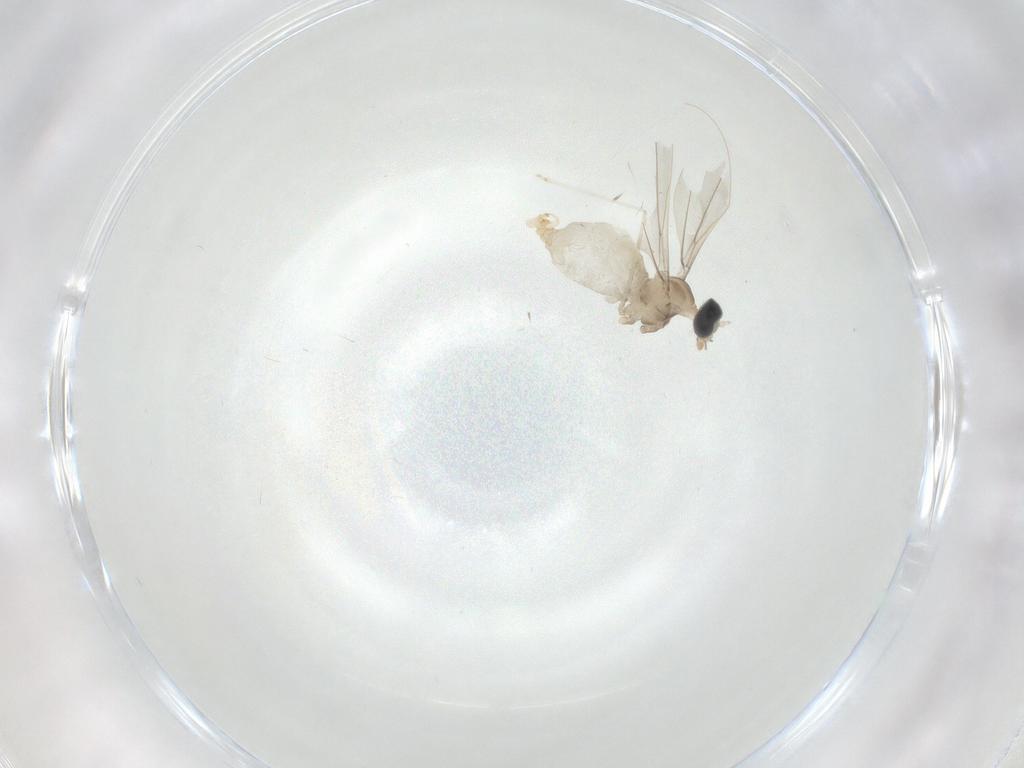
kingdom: Animalia
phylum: Arthropoda
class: Insecta
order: Diptera
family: Cecidomyiidae
